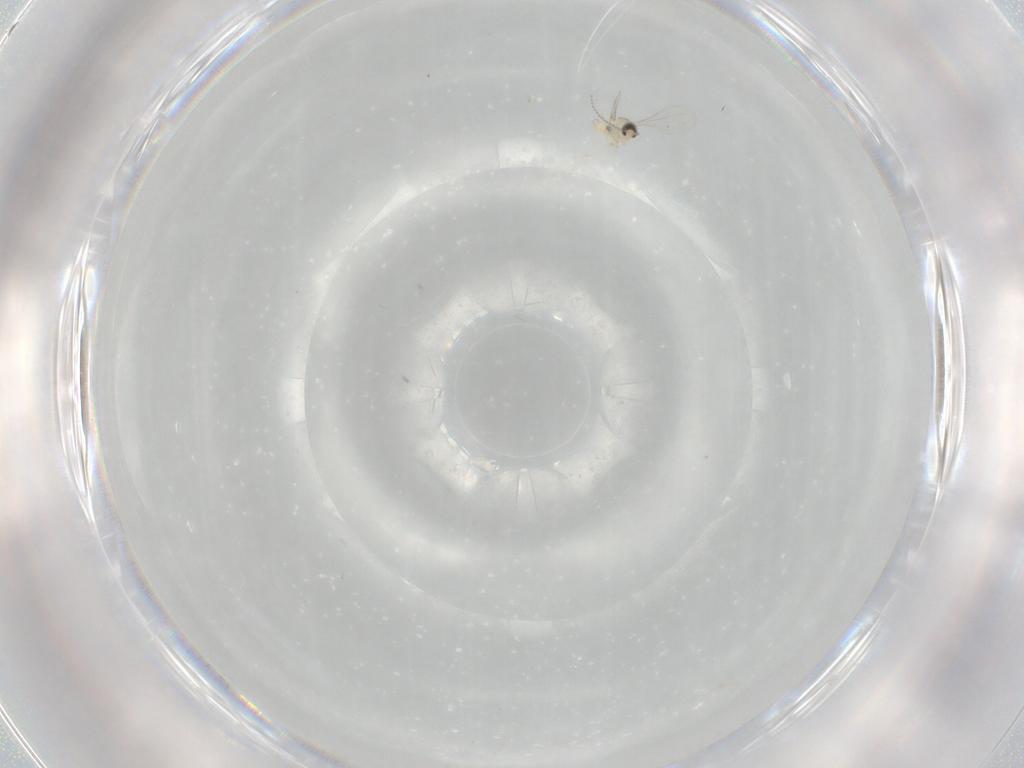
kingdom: Animalia
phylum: Arthropoda
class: Insecta
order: Diptera
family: Cecidomyiidae
